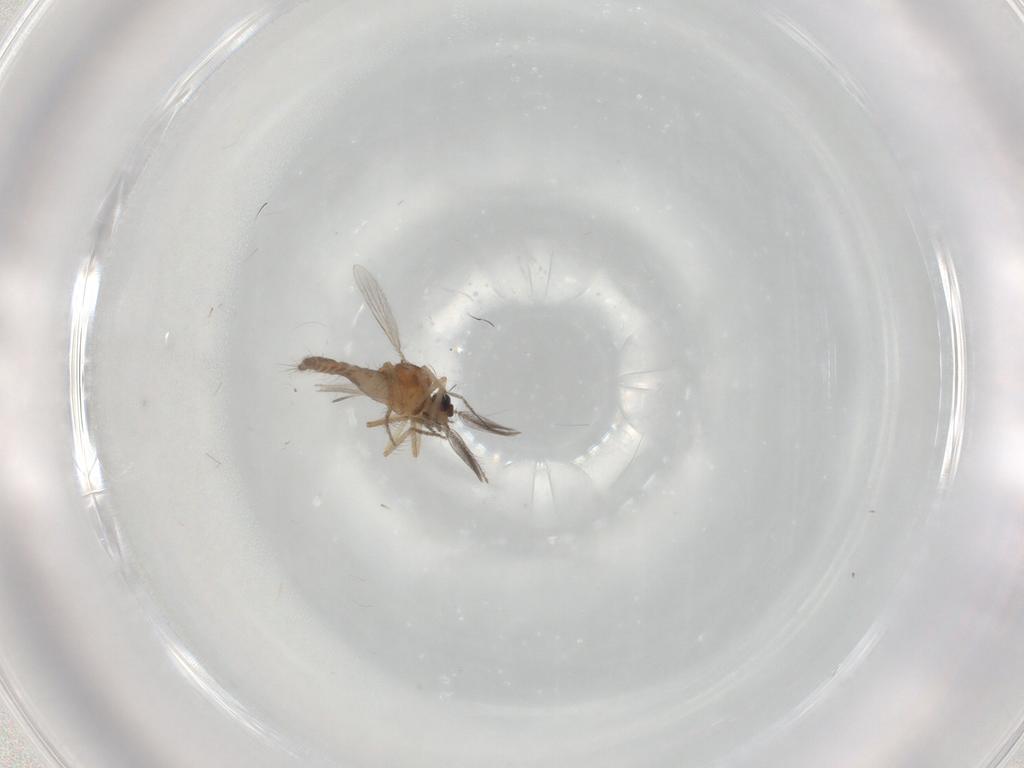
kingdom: Animalia
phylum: Arthropoda
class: Insecta
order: Diptera
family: Ceratopogonidae
